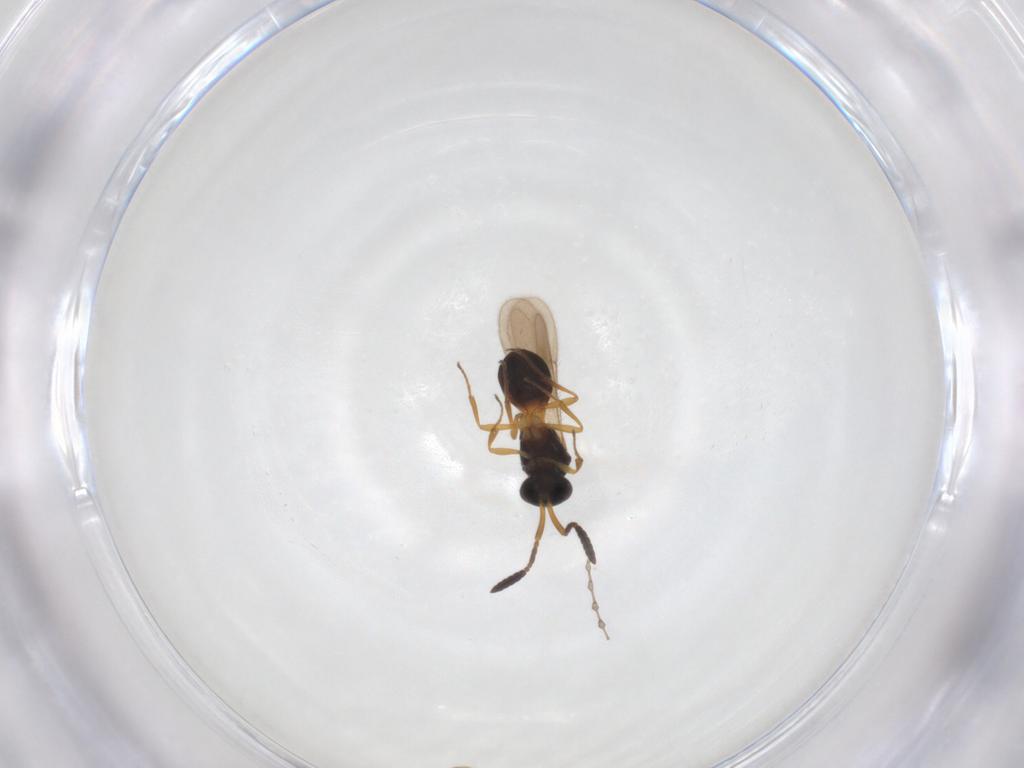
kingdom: Animalia
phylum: Arthropoda
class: Insecta
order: Hymenoptera
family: Scelionidae
